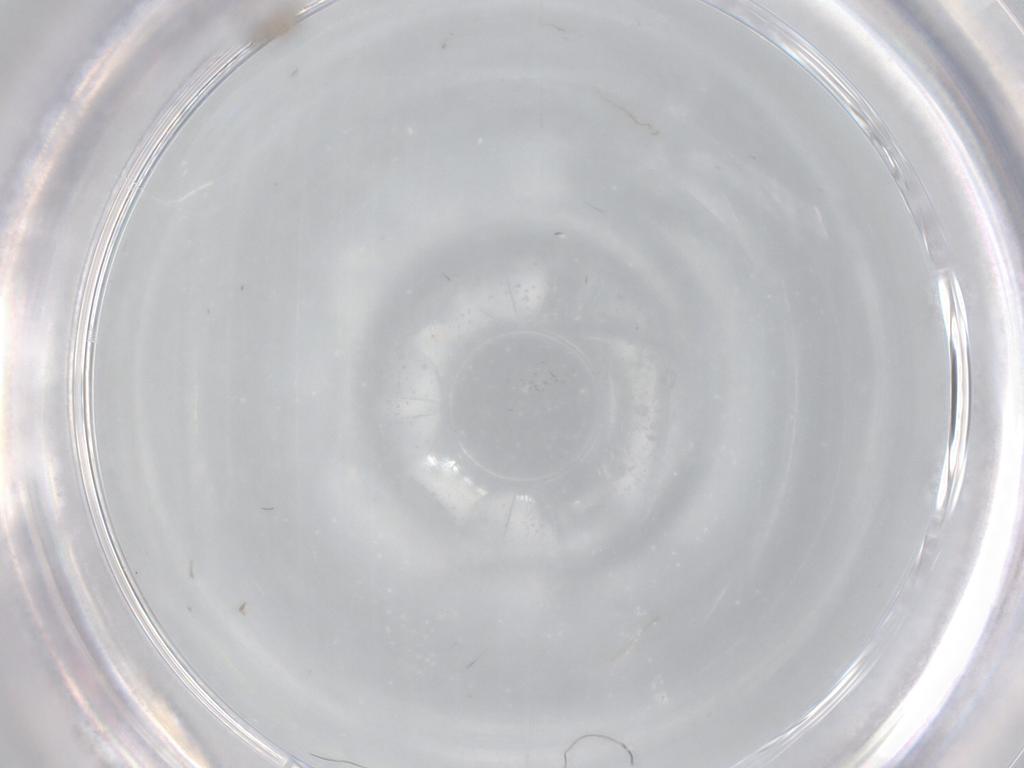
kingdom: Animalia
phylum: Arthropoda
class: Insecta
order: Diptera
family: Cecidomyiidae
